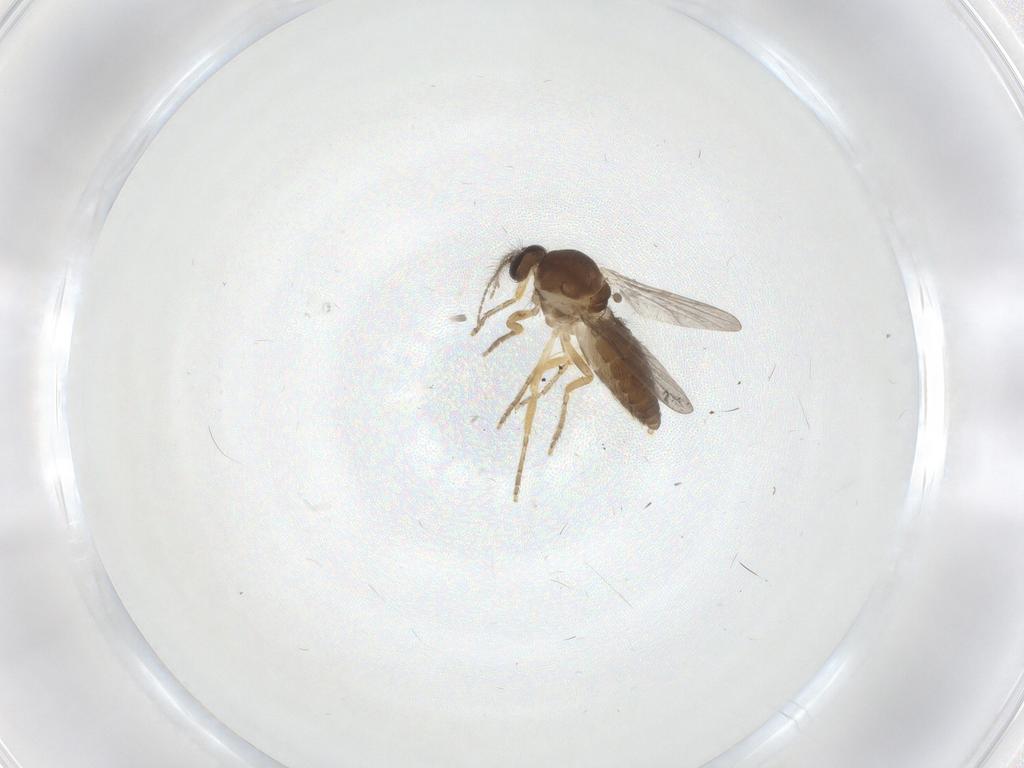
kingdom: Animalia
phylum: Arthropoda
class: Insecta
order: Diptera
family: Ceratopogonidae
